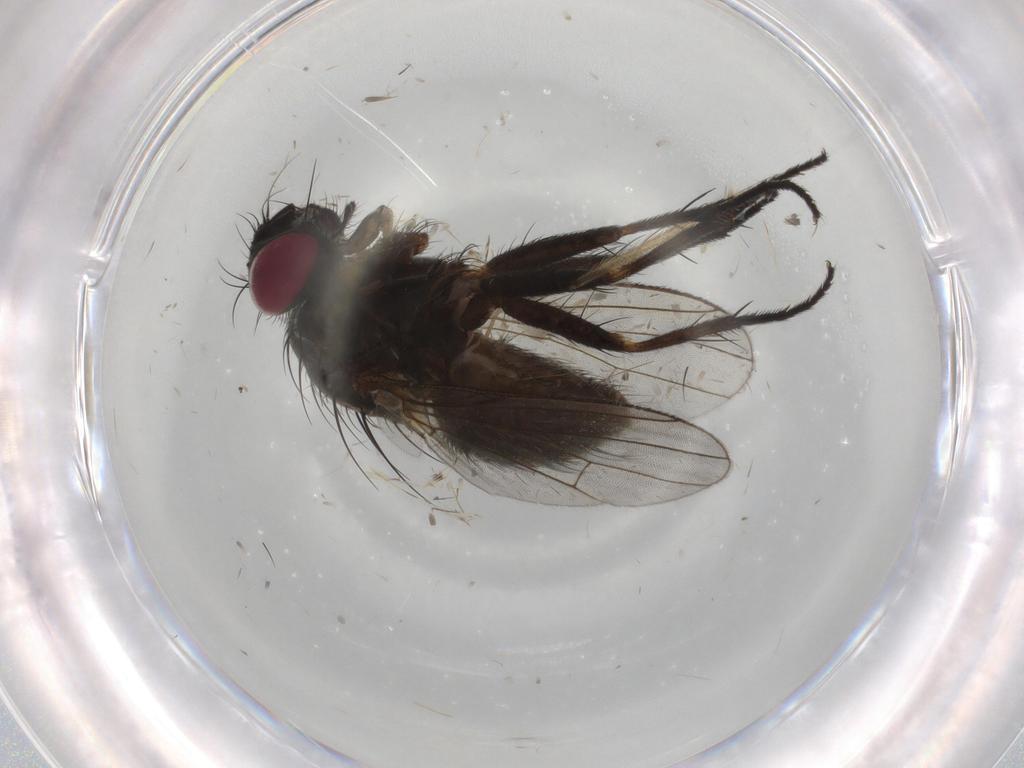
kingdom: Animalia
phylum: Arthropoda
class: Insecta
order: Diptera
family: Muscidae
